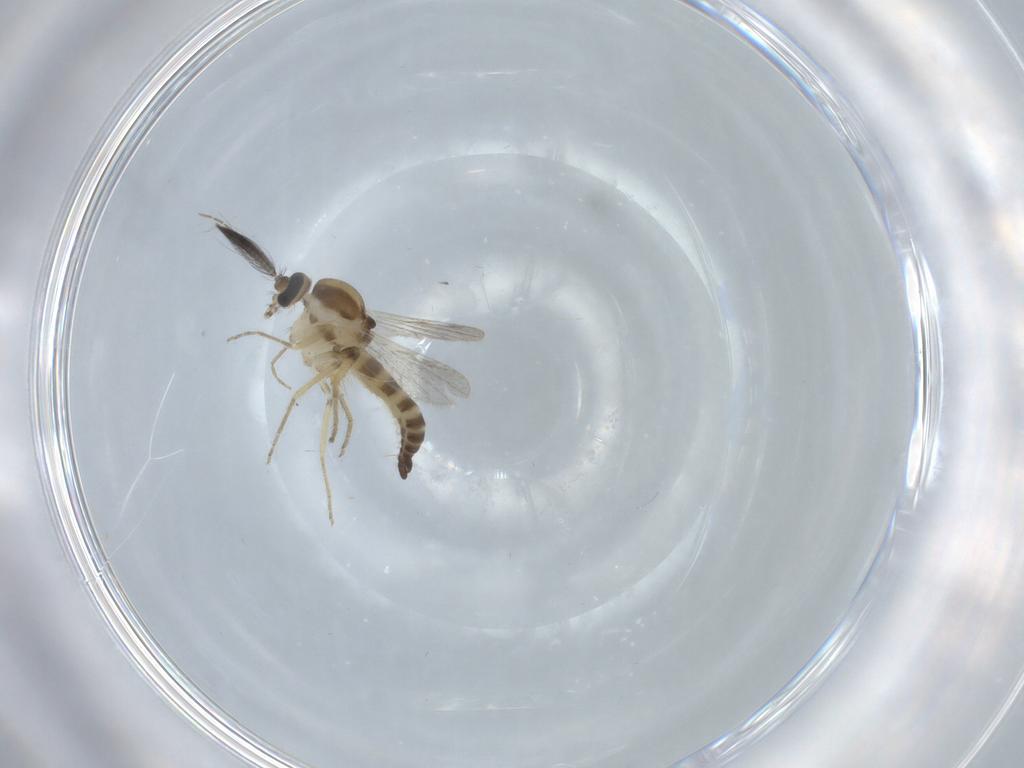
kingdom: Animalia
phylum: Arthropoda
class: Insecta
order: Diptera
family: Ceratopogonidae
